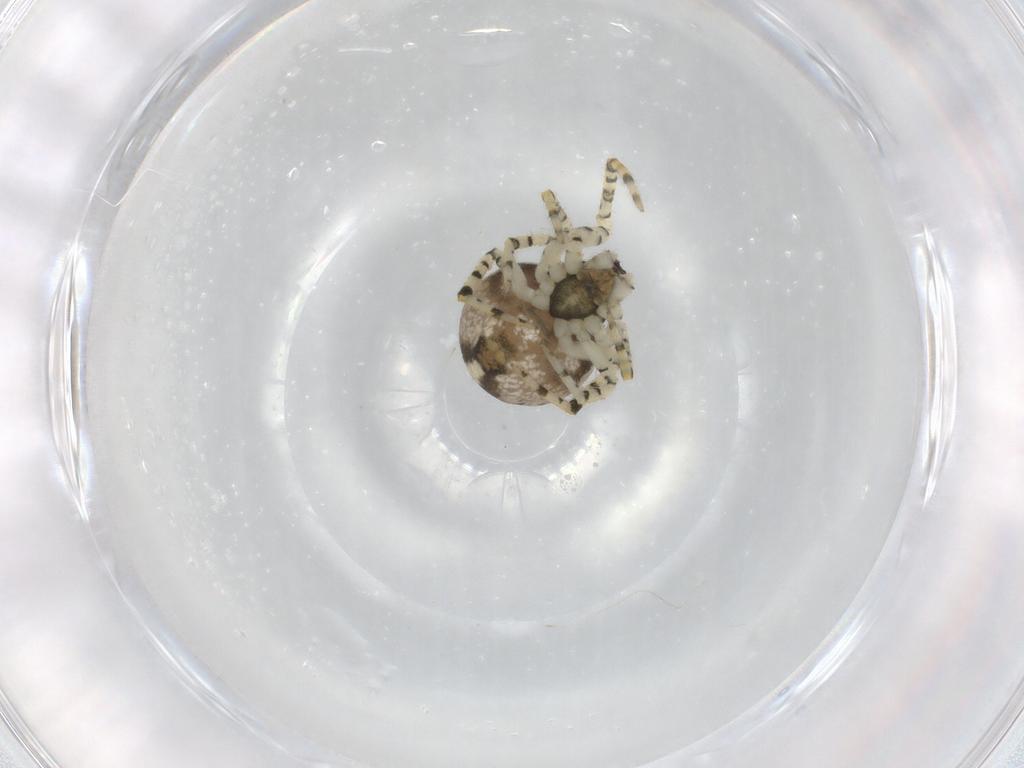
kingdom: Animalia
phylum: Arthropoda
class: Arachnida
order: Araneae
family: Theridiidae
